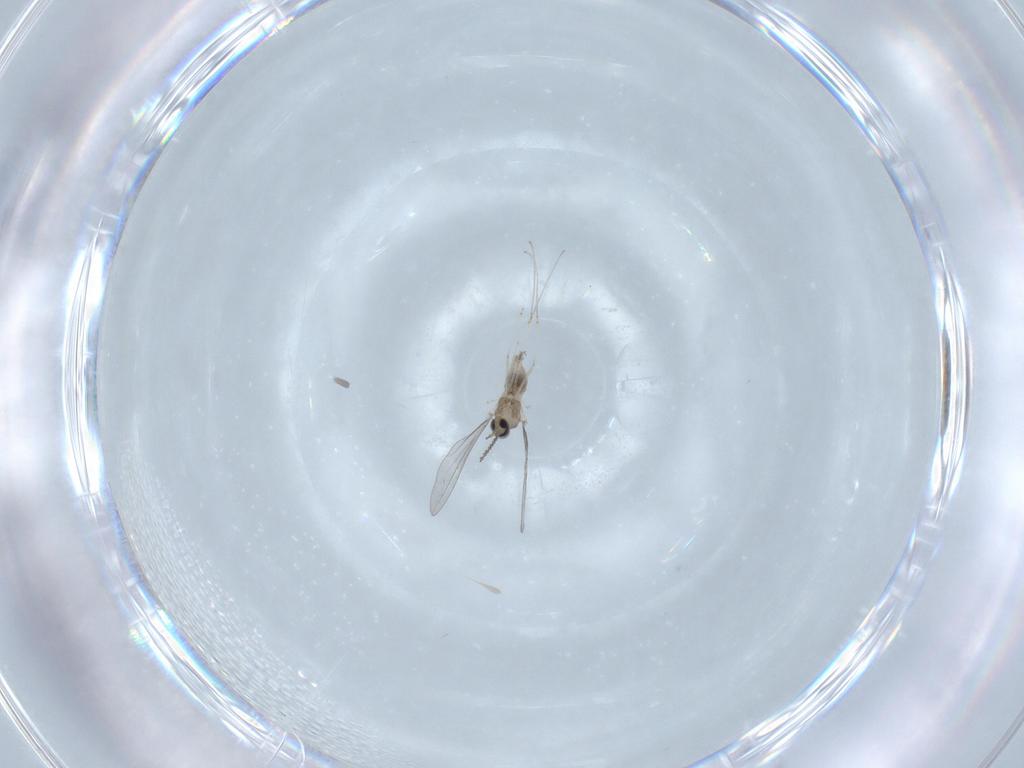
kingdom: Animalia
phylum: Arthropoda
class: Insecta
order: Diptera
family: Cecidomyiidae
